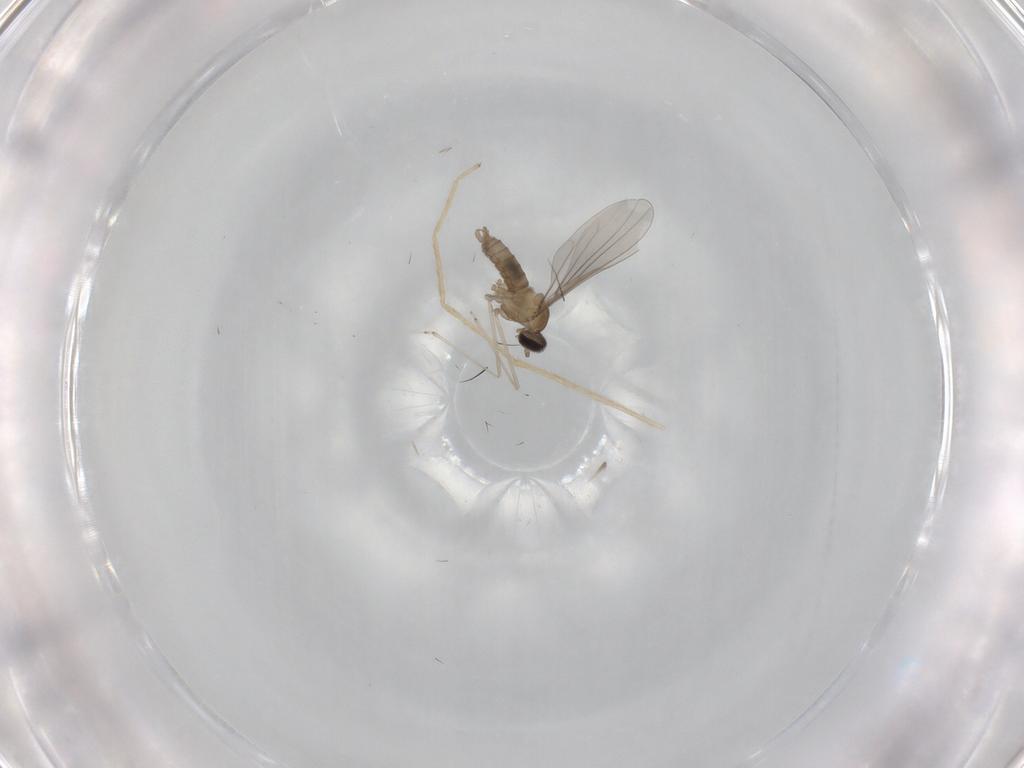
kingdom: Animalia
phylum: Arthropoda
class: Insecta
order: Diptera
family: Cecidomyiidae
